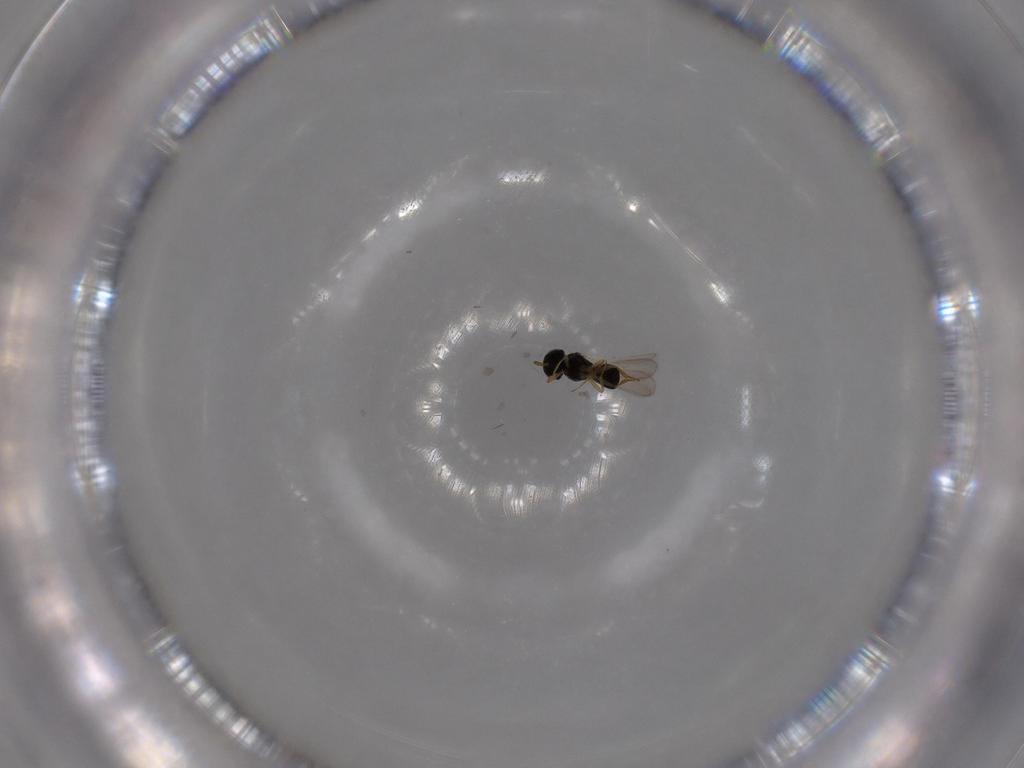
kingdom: Animalia
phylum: Arthropoda
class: Insecta
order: Hymenoptera
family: Scelionidae
